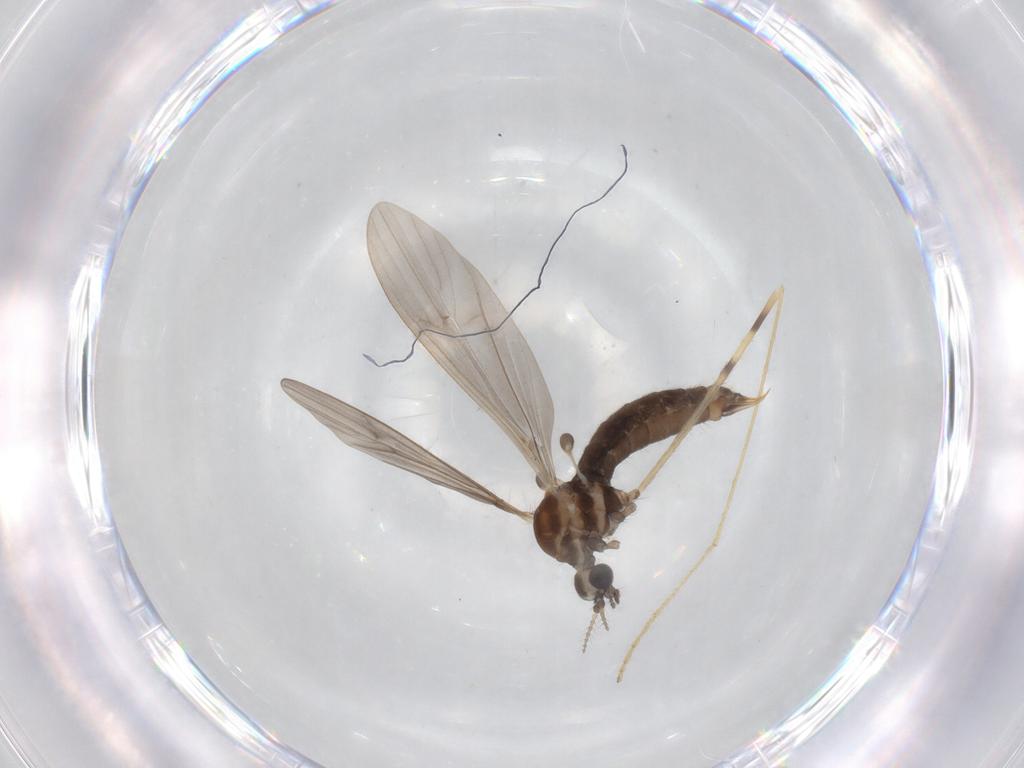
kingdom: Animalia
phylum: Arthropoda
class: Insecta
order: Diptera
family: Limoniidae
